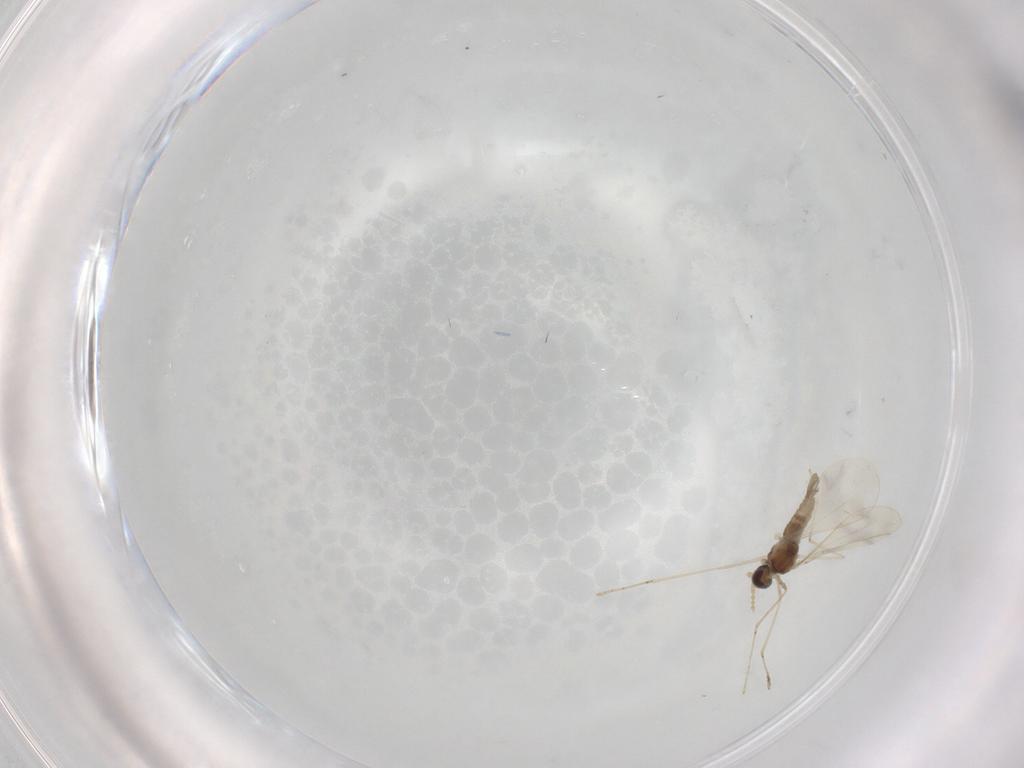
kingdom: Animalia
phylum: Arthropoda
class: Insecta
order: Diptera
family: Cecidomyiidae
